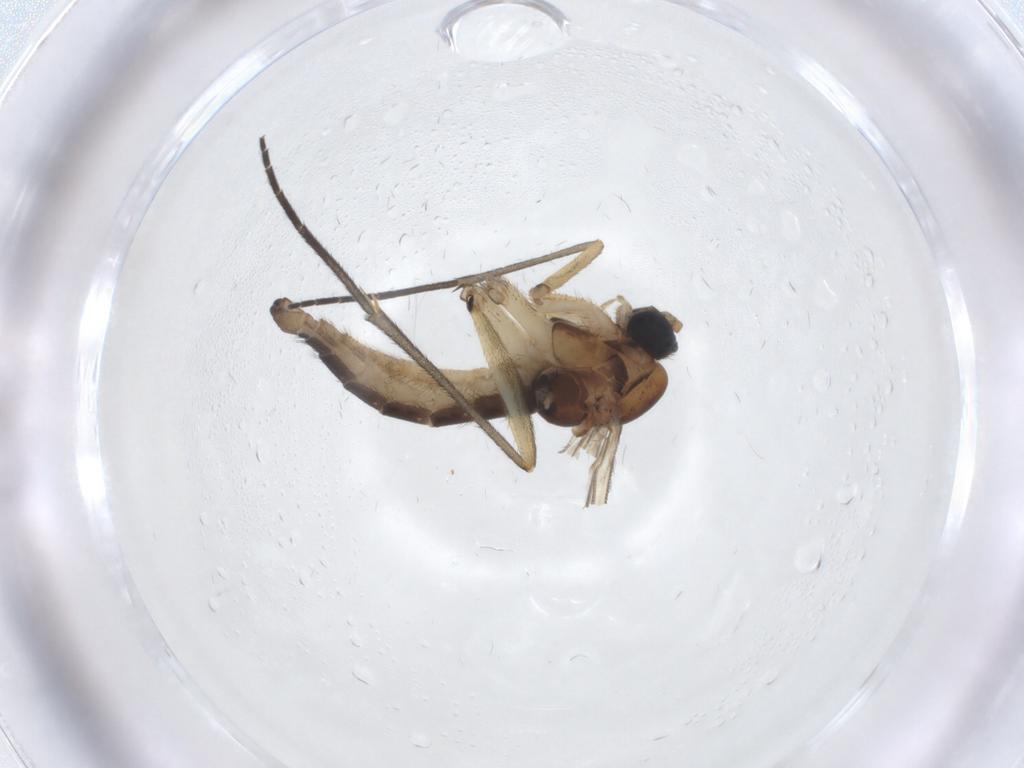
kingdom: Animalia
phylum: Arthropoda
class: Insecta
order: Diptera
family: Sciaridae
